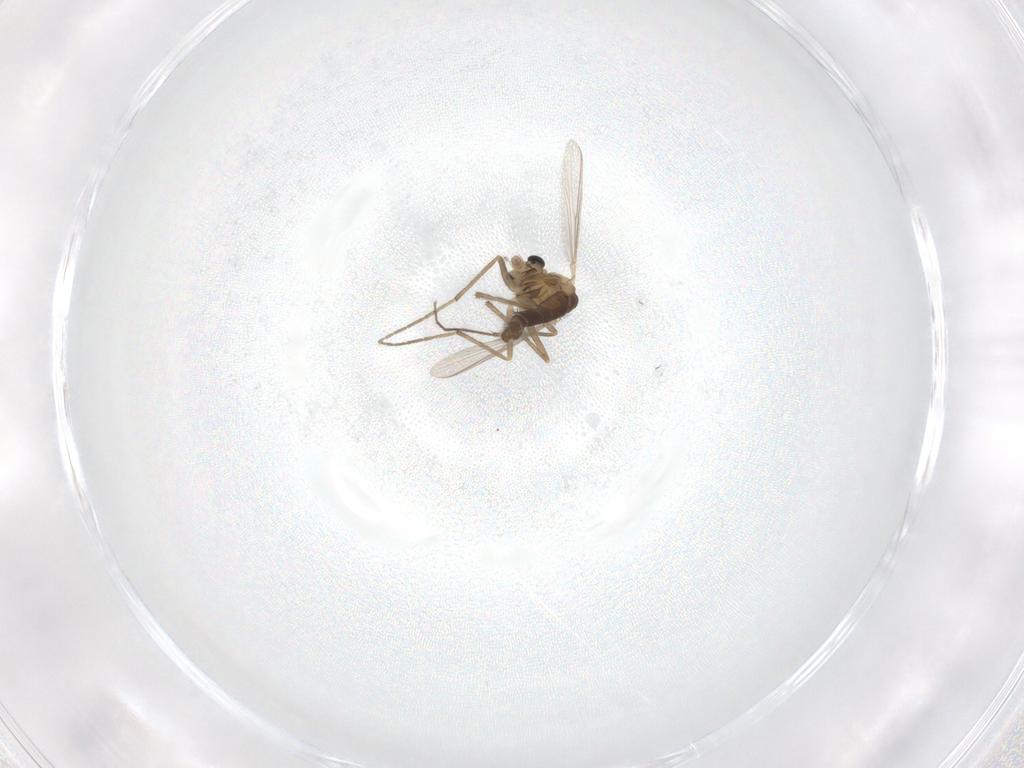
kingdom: Animalia
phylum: Arthropoda
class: Insecta
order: Diptera
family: Chironomidae
